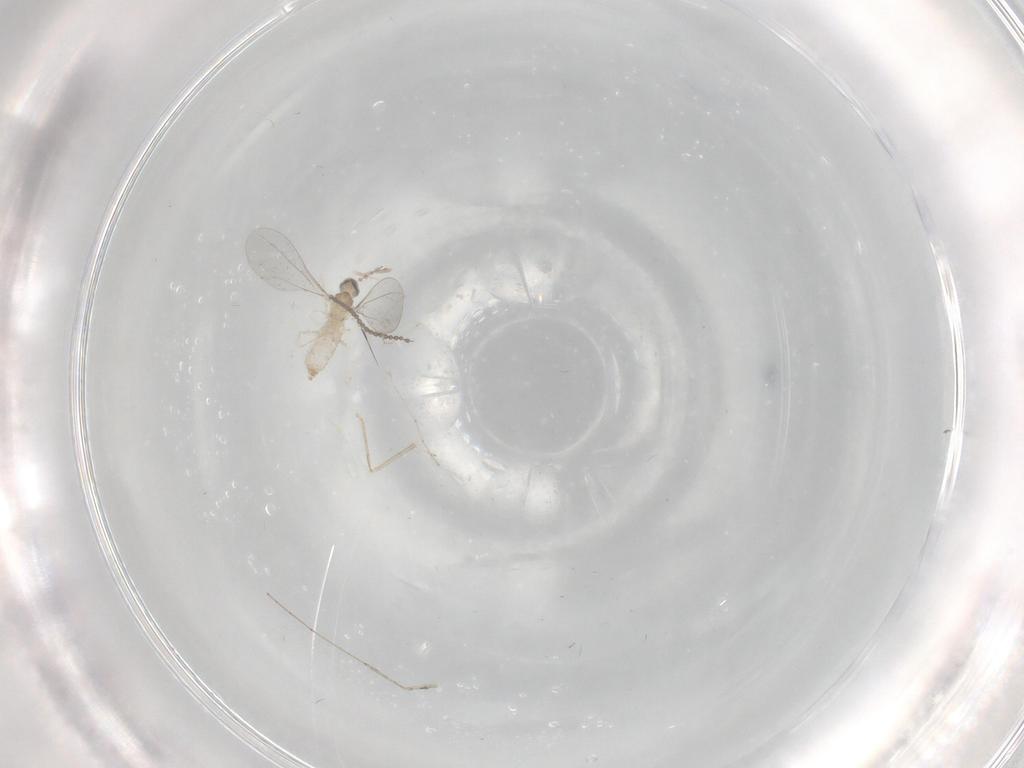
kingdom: Animalia
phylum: Arthropoda
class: Insecta
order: Diptera
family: Cecidomyiidae
